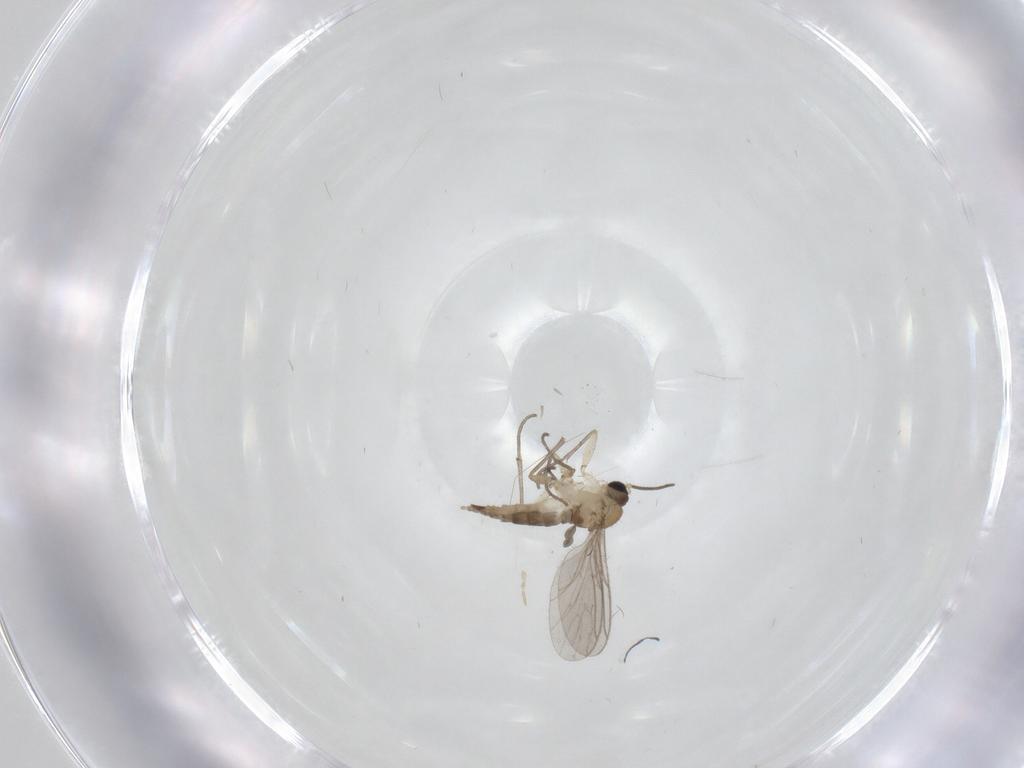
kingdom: Animalia
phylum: Arthropoda
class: Insecta
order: Diptera
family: Sciaridae
